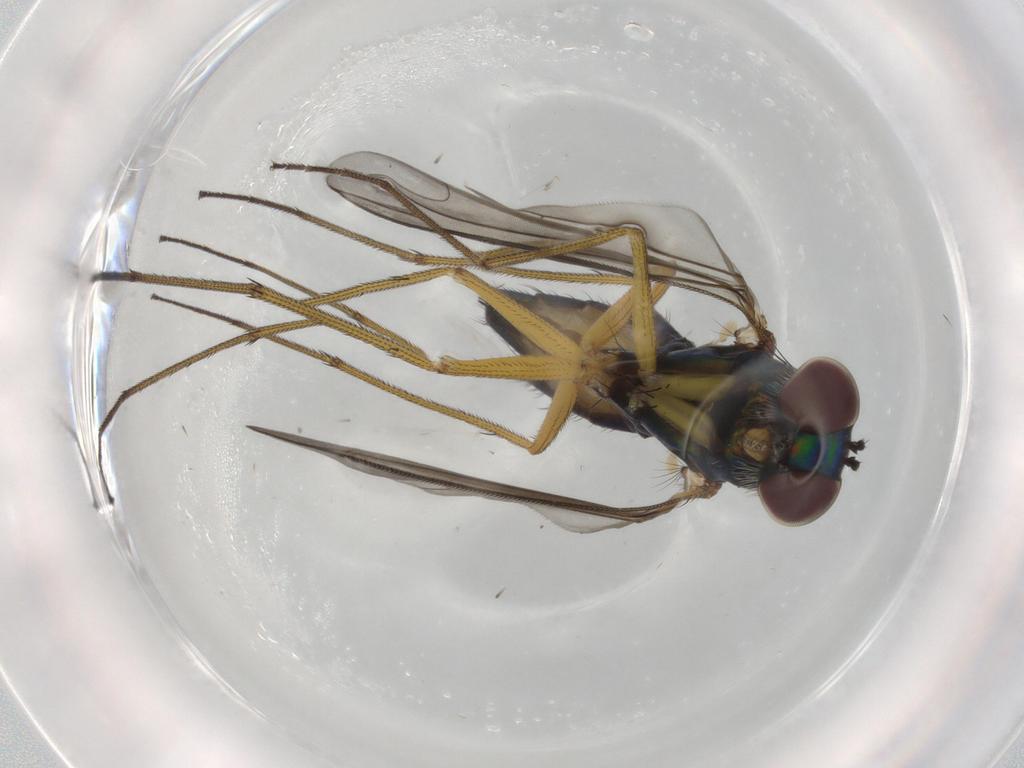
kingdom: Animalia
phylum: Arthropoda
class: Insecta
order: Diptera
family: Dolichopodidae
